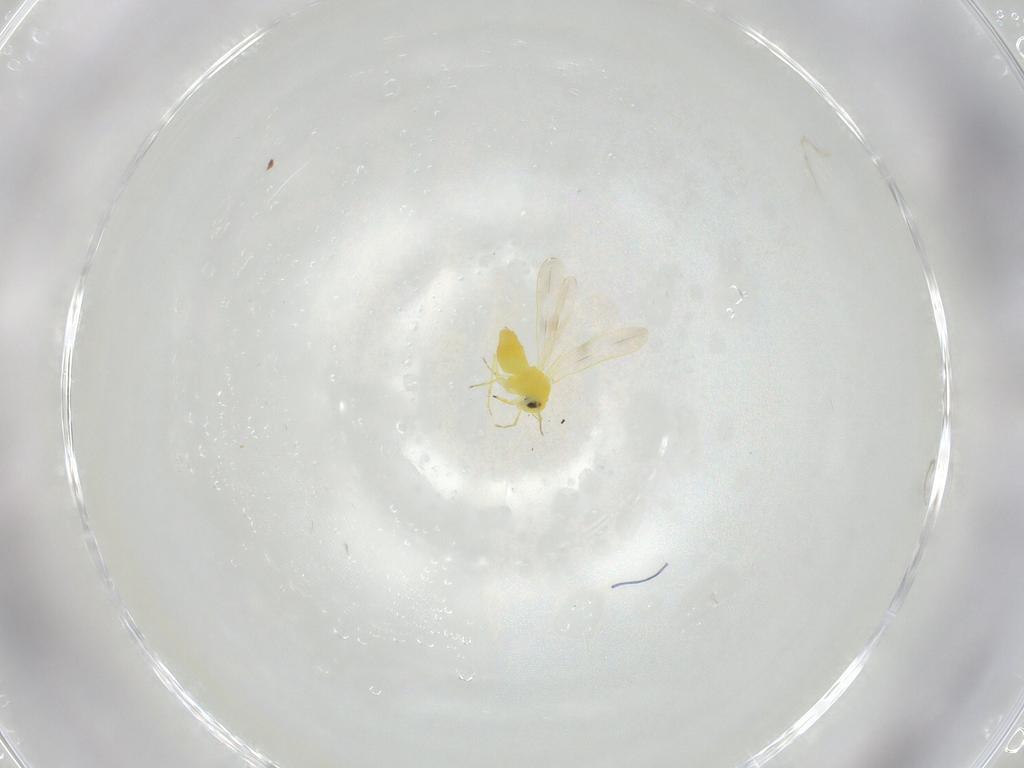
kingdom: Animalia
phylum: Arthropoda
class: Insecta
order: Hemiptera
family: Aleyrodidae
